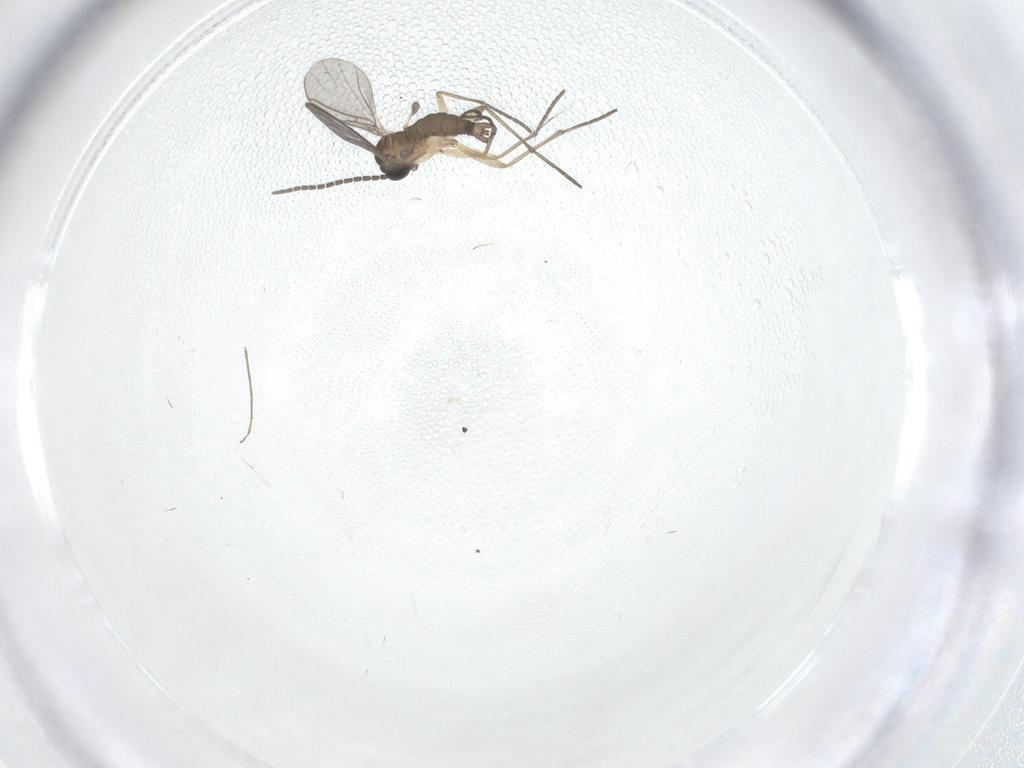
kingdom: Animalia
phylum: Arthropoda
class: Insecta
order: Diptera
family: Sciaridae
